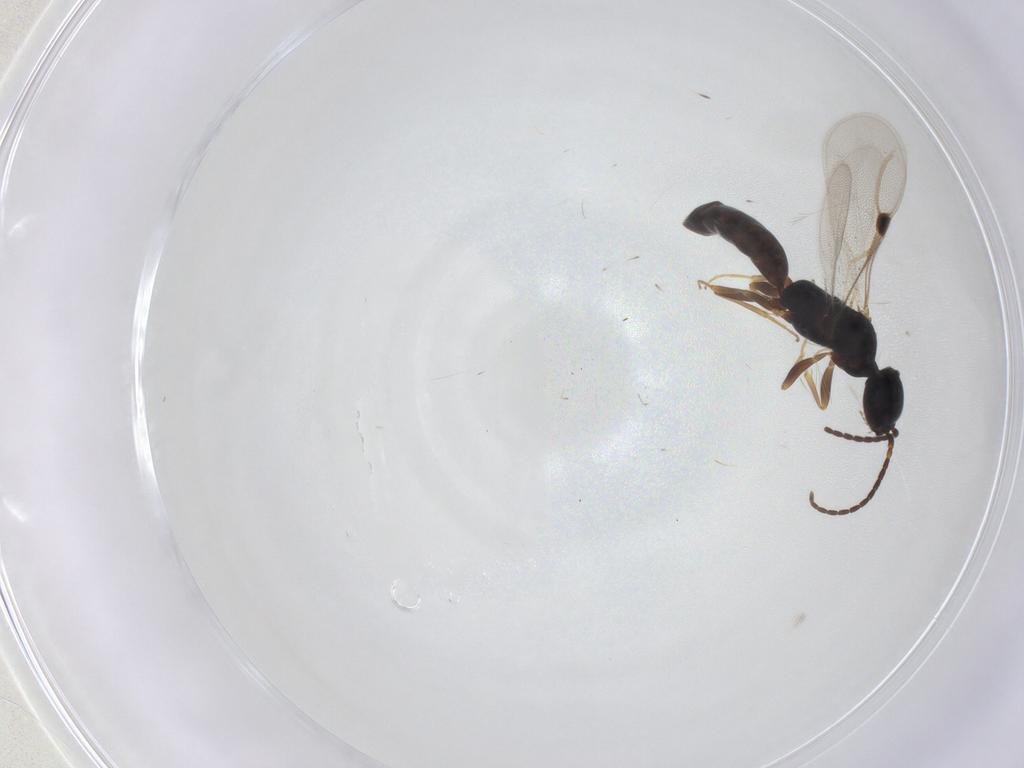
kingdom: Animalia
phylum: Arthropoda
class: Insecta
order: Hymenoptera
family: Bethylidae
